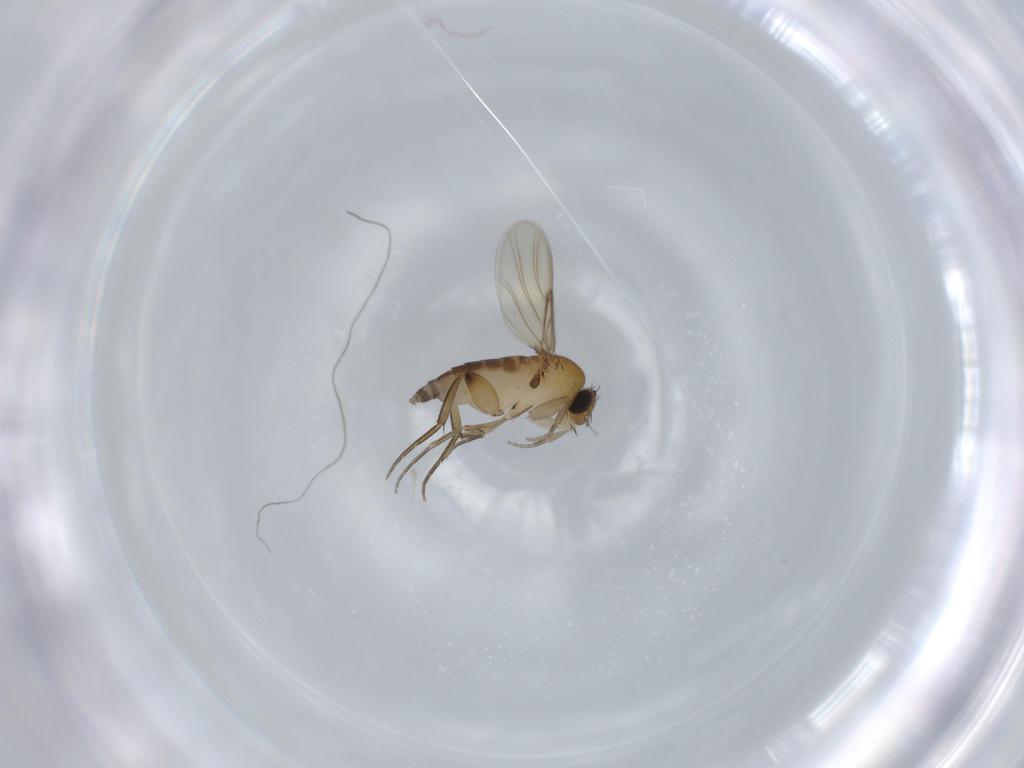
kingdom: Animalia
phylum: Arthropoda
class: Insecta
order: Diptera
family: Phoridae
